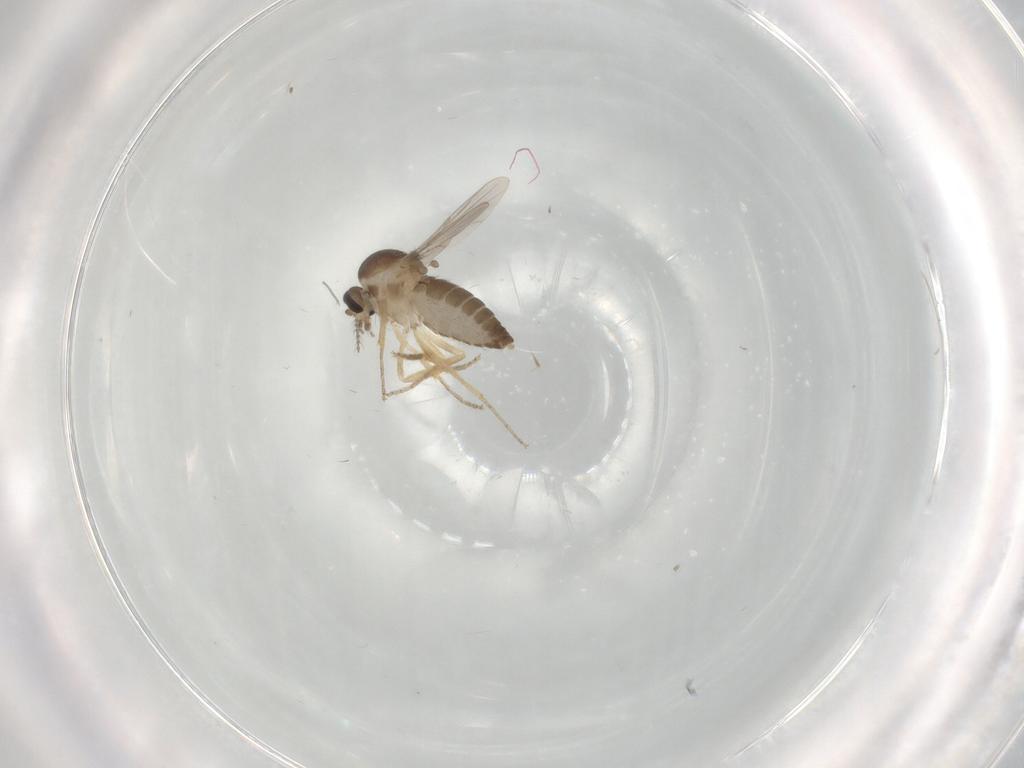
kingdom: Animalia
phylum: Arthropoda
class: Insecta
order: Diptera
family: Ceratopogonidae
